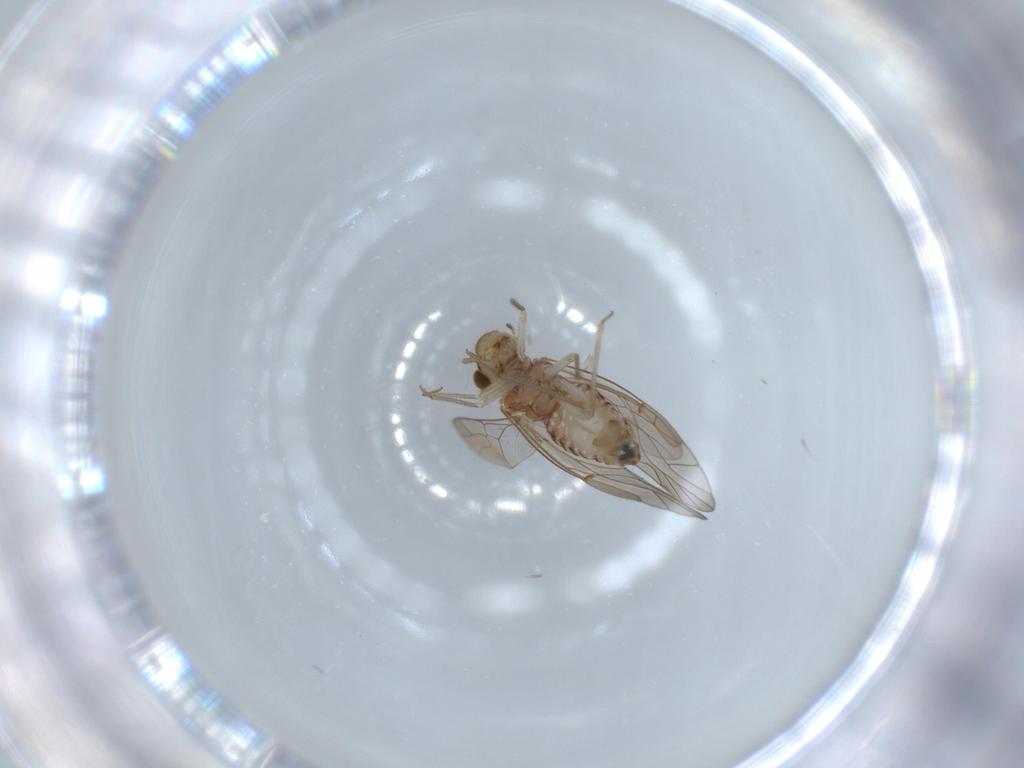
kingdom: Animalia
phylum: Arthropoda
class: Insecta
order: Psocodea
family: Lachesillidae
